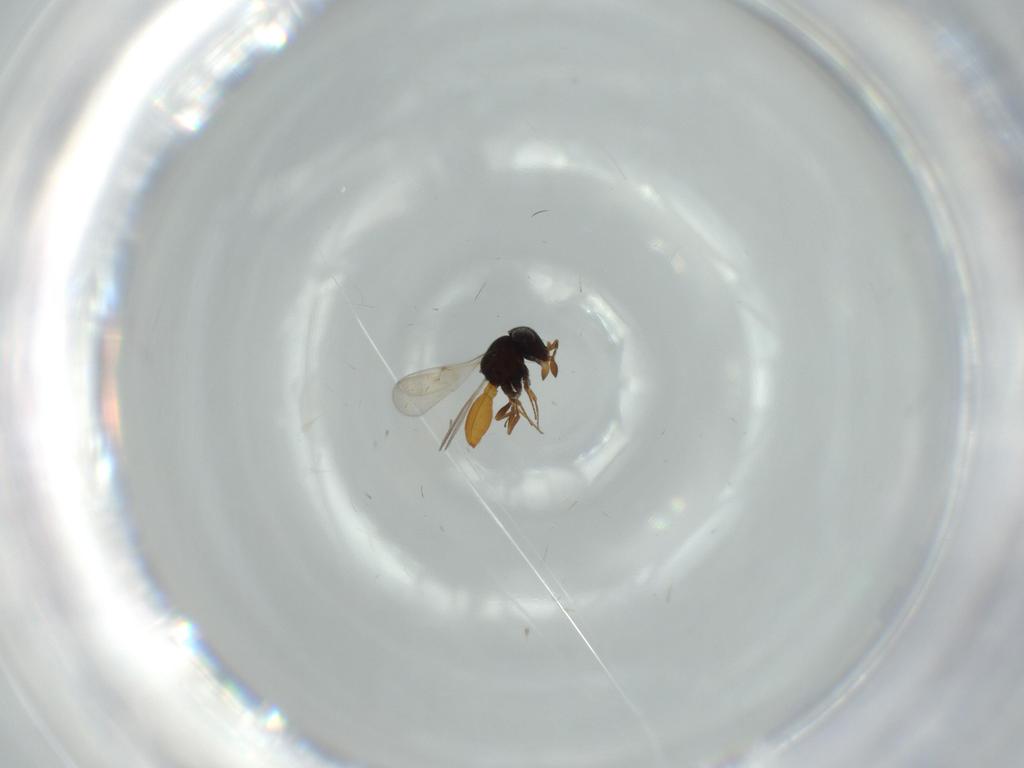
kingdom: Animalia
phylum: Arthropoda
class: Insecta
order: Hymenoptera
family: Scelionidae
